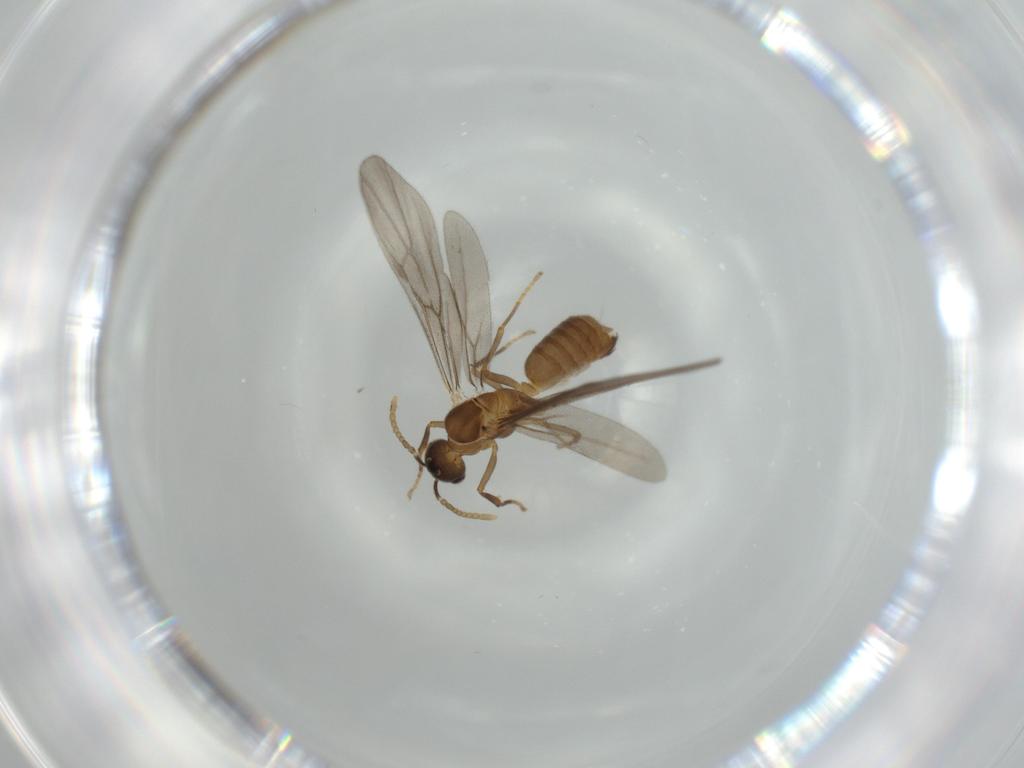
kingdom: Animalia
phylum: Arthropoda
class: Insecta
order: Hymenoptera
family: Formicidae
